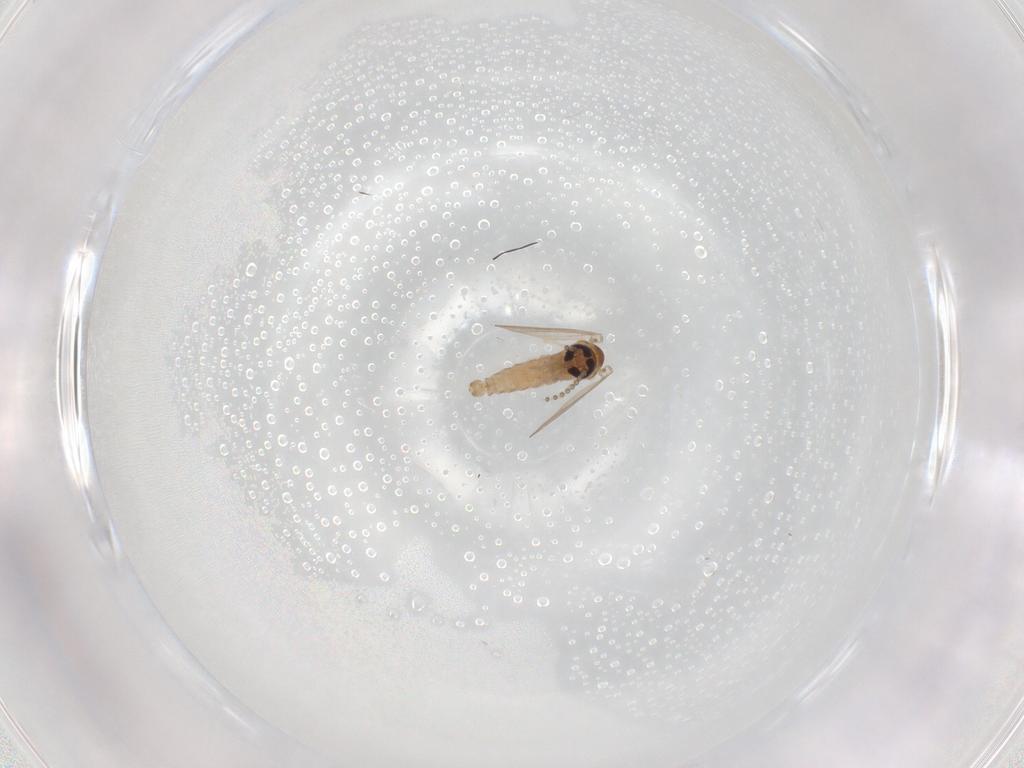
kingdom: Animalia
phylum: Arthropoda
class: Insecta
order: Diptera
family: Psychodidae
